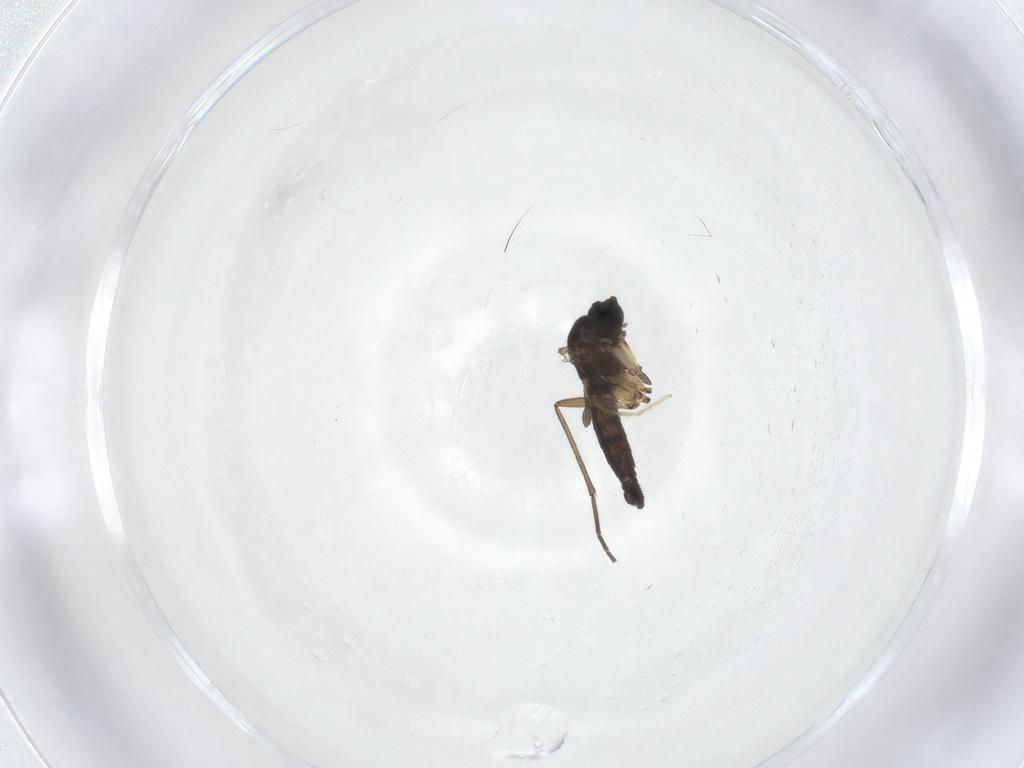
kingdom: Animalia
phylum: Arthropoda
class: Insecta
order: Diptera
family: Sciaridae
